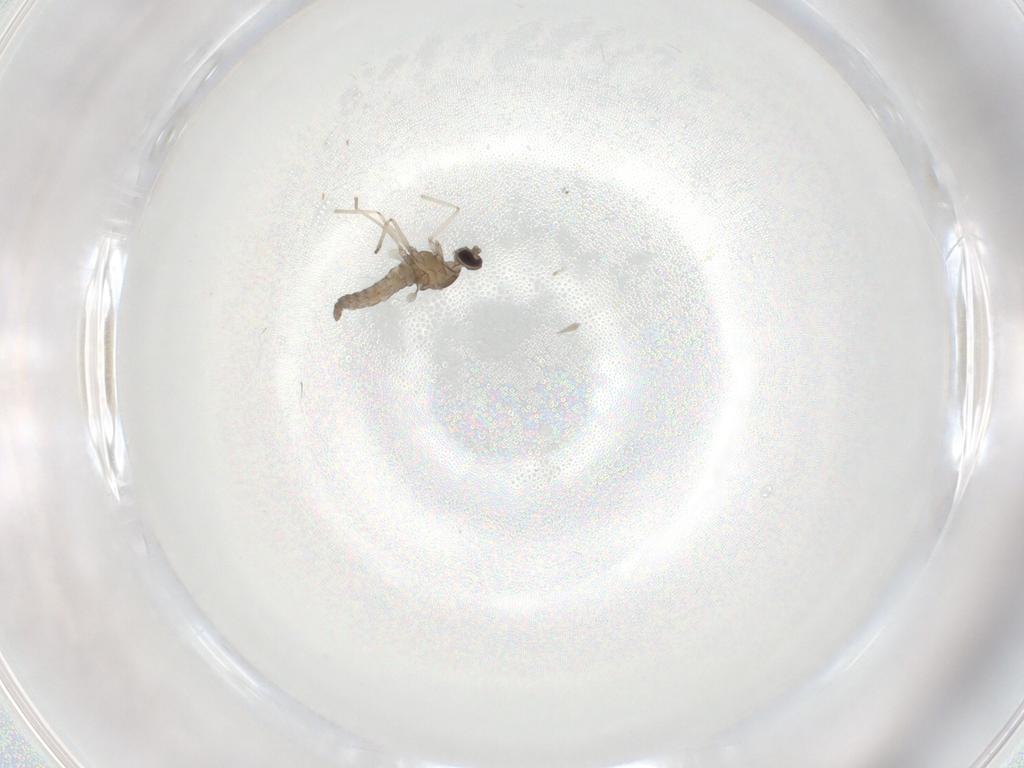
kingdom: Animalia
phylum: Arthropoda
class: Insecta
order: Diptera
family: Cecidomyiidae
